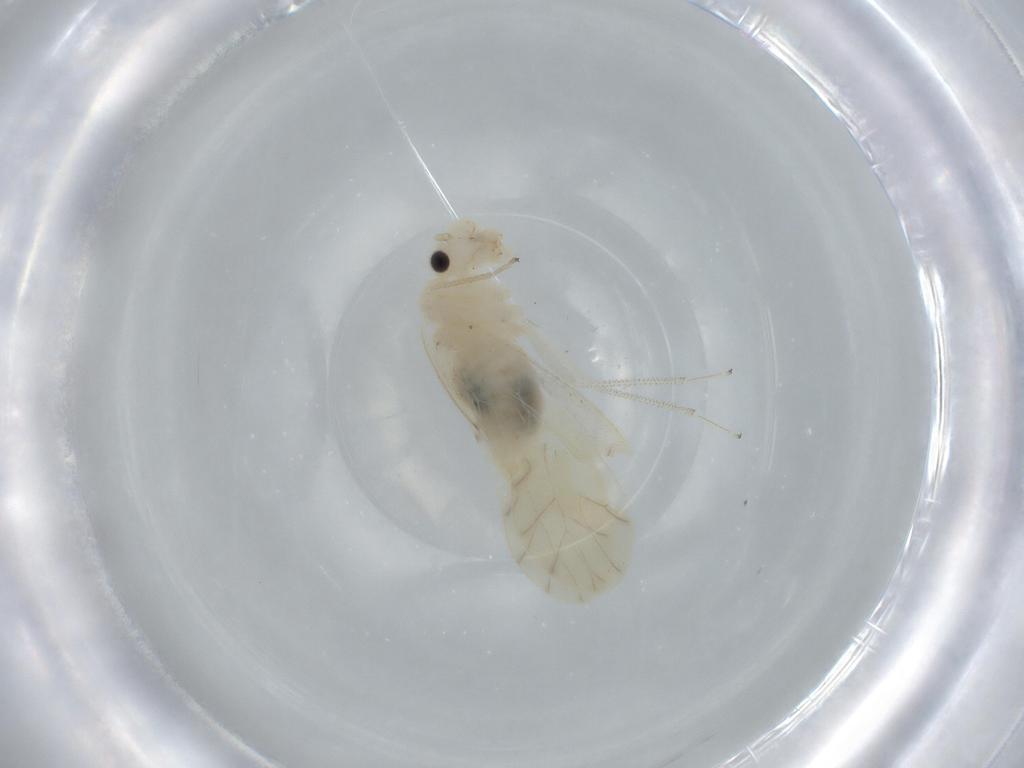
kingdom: Animalia
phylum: Arthropoda
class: Insecta
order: Psocodea
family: Caeciliusidae
